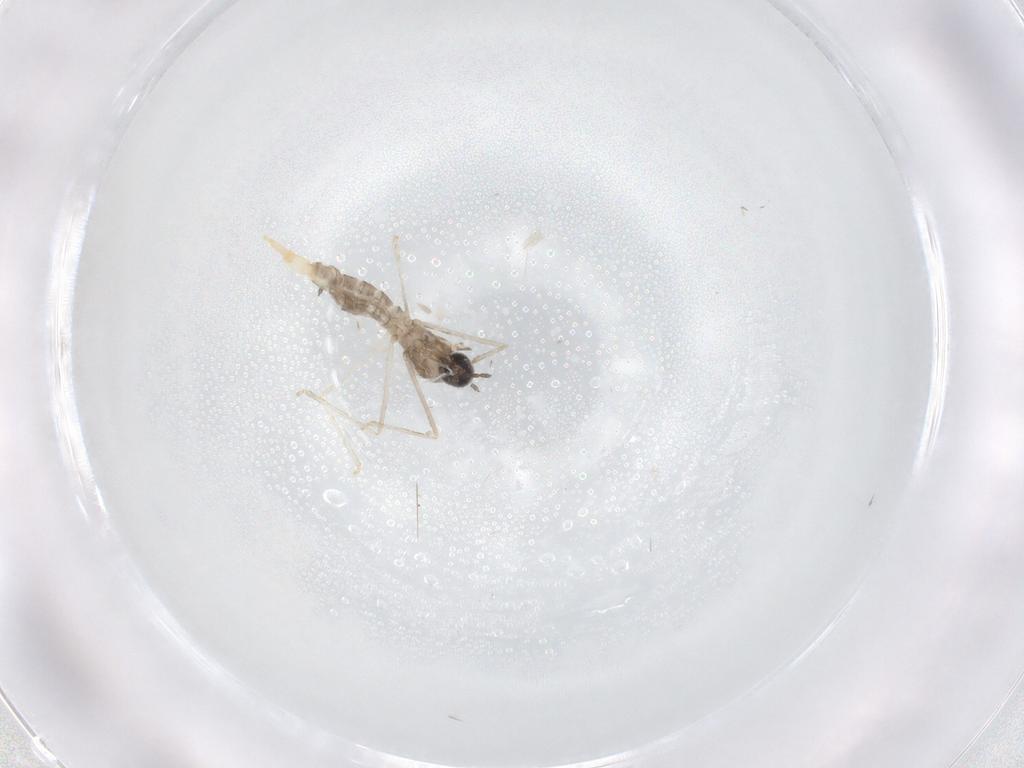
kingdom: Animalia
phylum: Arthropoda
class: Insecta
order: Diptera
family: Cecidomyiidae
